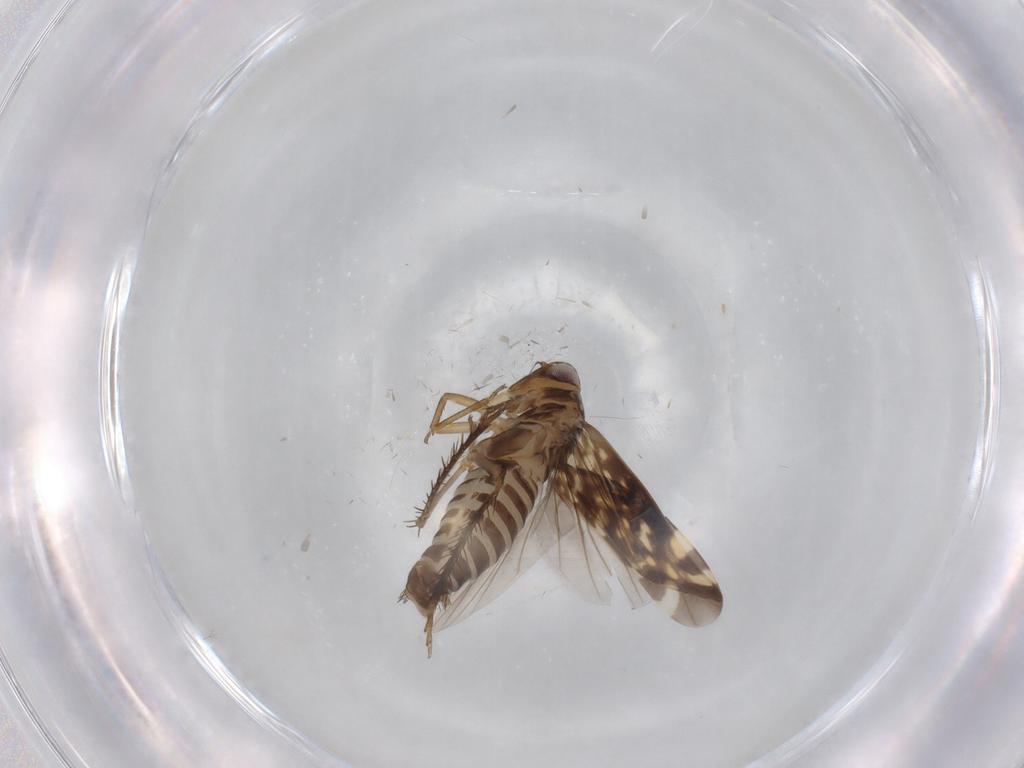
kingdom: Animalia
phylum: Arthropoda
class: Insecta
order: Hemiptera
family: Cicadellidae
